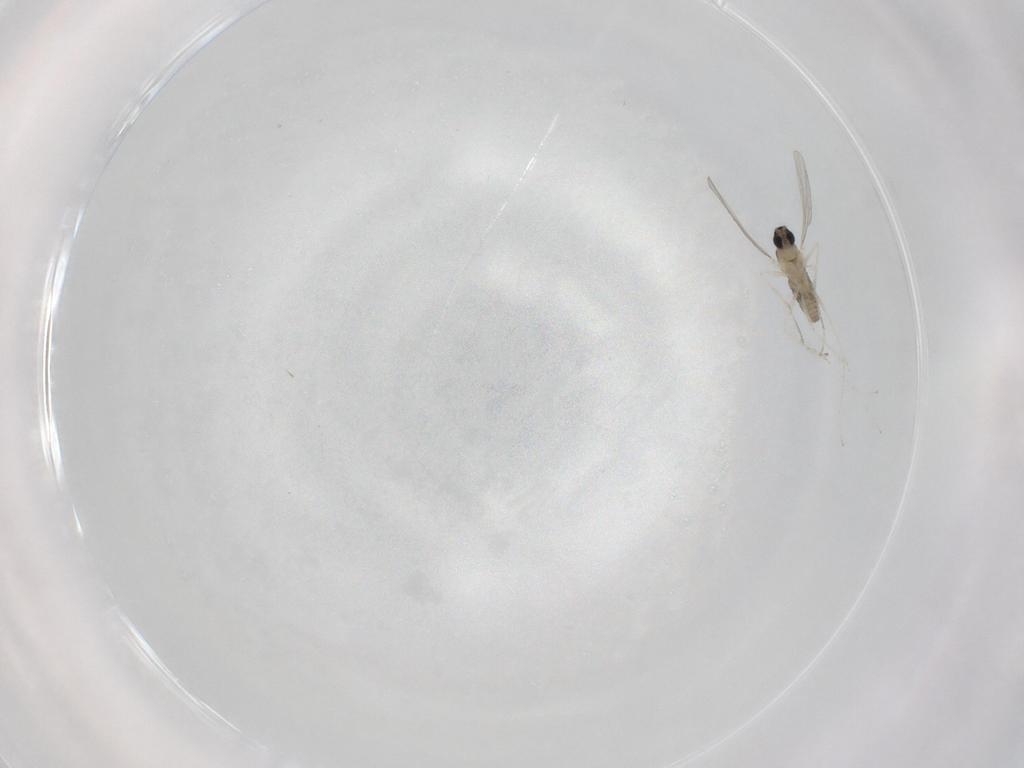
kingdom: Animalia
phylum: Arthropoda
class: Insecta
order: Diptera
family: Cecidomyiidae
